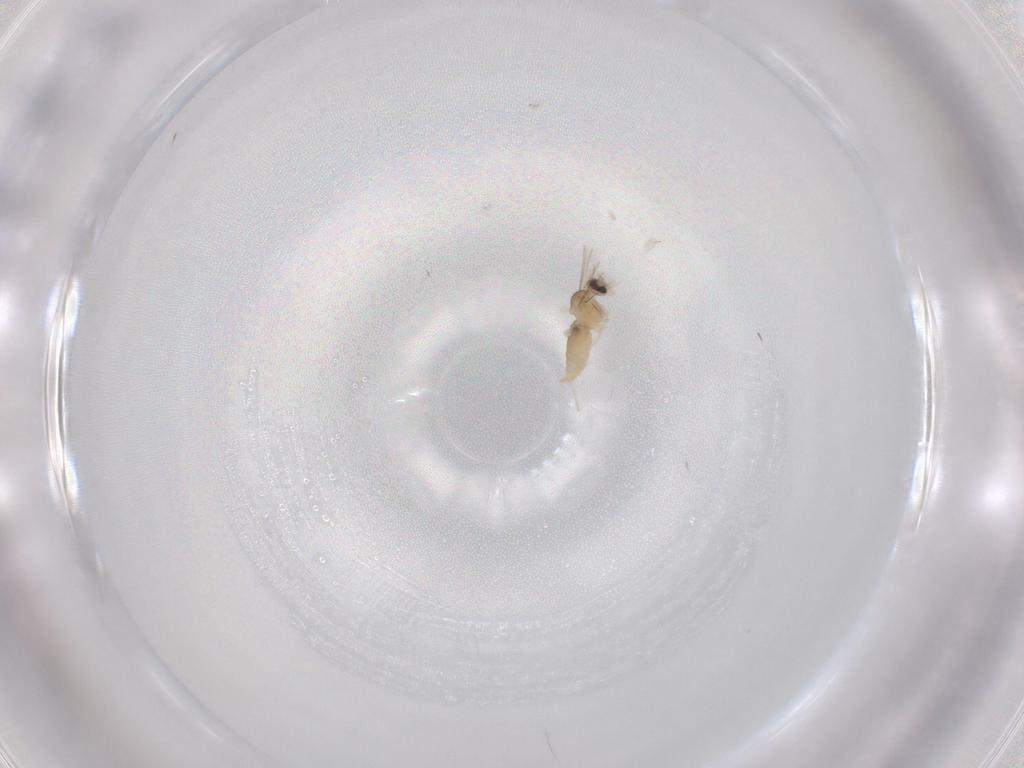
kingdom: Animalia
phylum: Arthropoda
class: Insecta
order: Diptera
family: Cecidomyiidae
